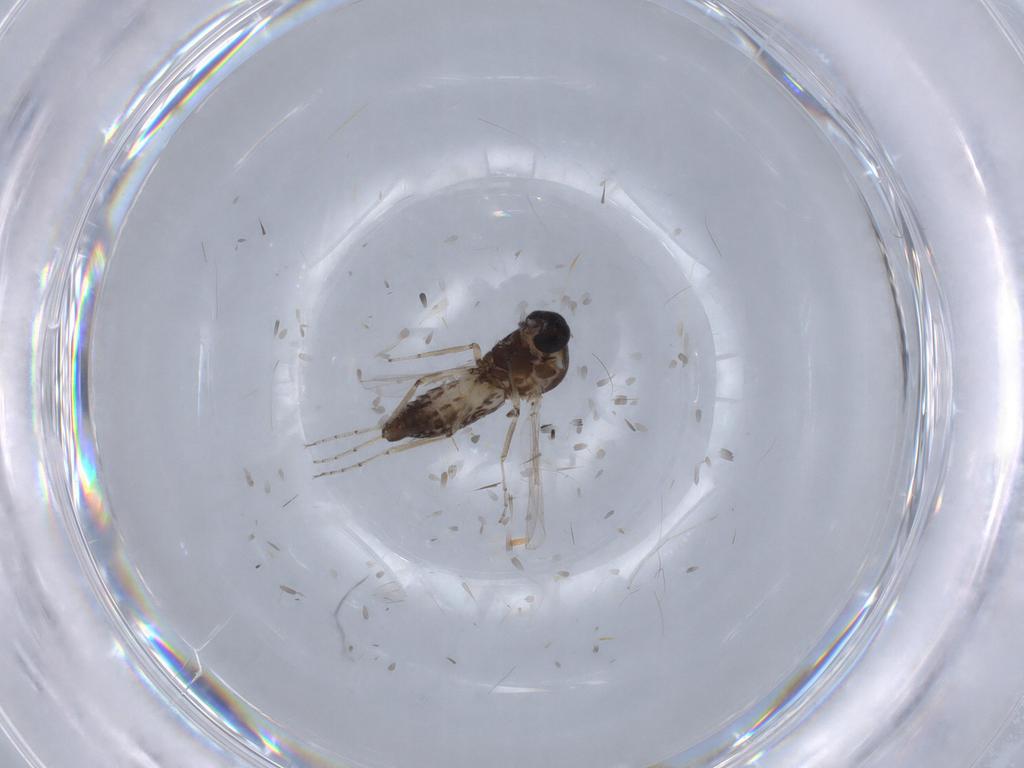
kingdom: Animalia
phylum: Arthropoda
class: Insecta
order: Diptera
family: Ceratopogonidae
